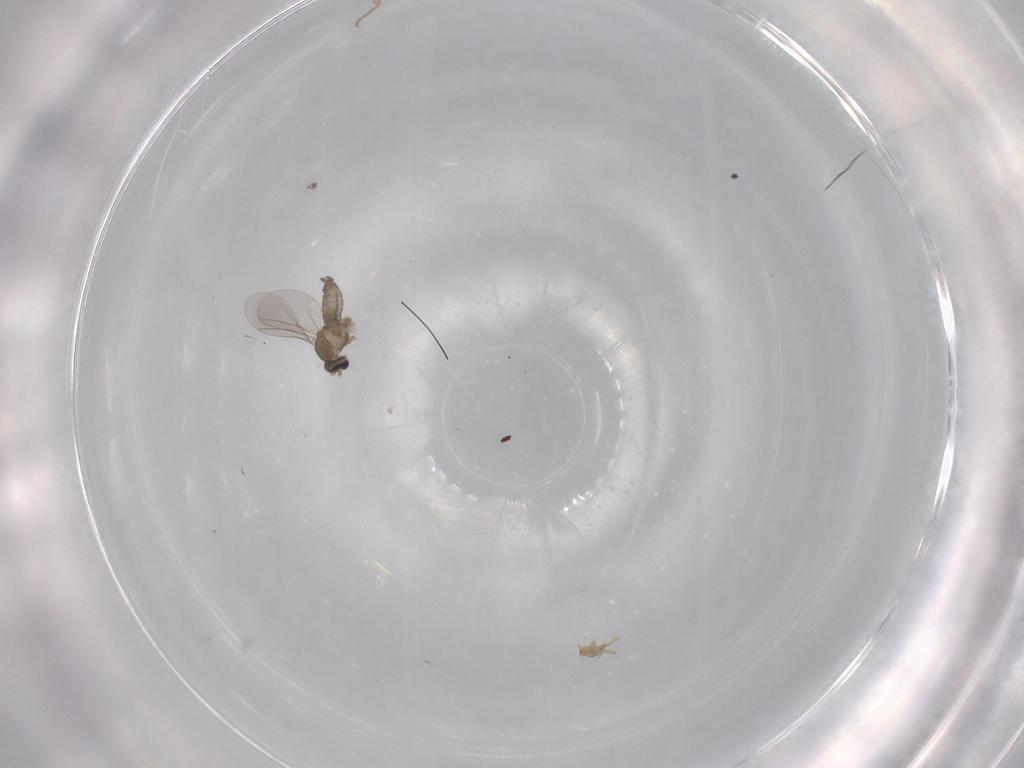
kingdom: Animalia
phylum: Arthropoda
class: Insecta
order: Diptera
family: Cecidomyiidae
